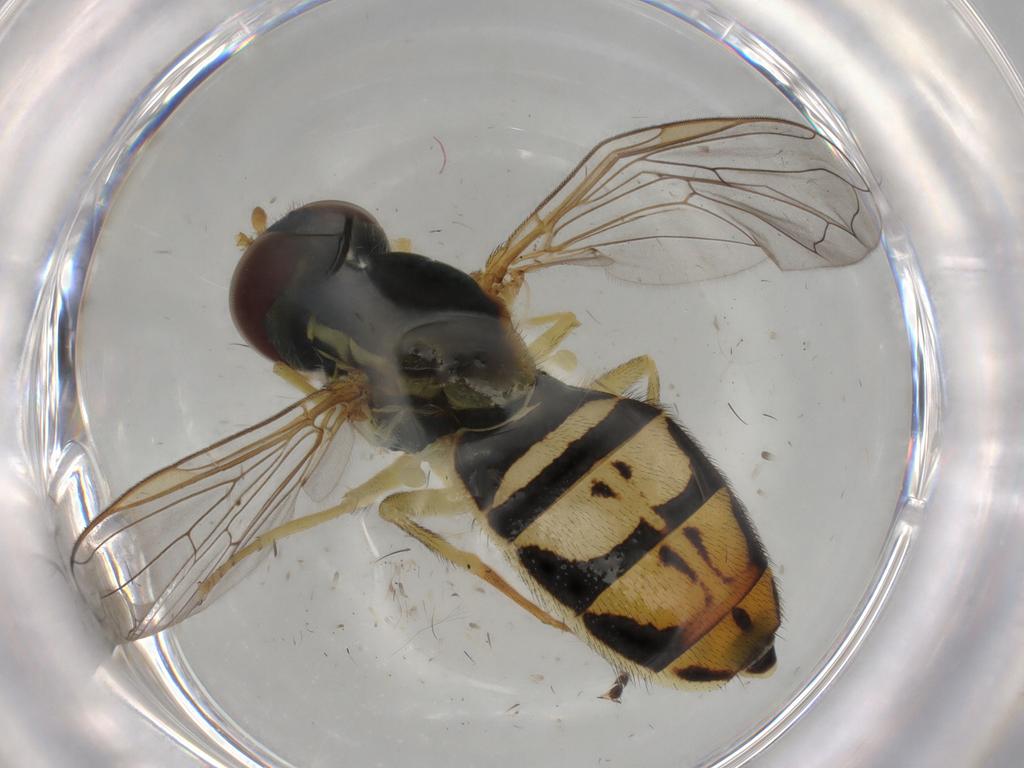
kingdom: Animalia
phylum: Arthropoda
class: Insecta
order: Diptera
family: Syrphidae
